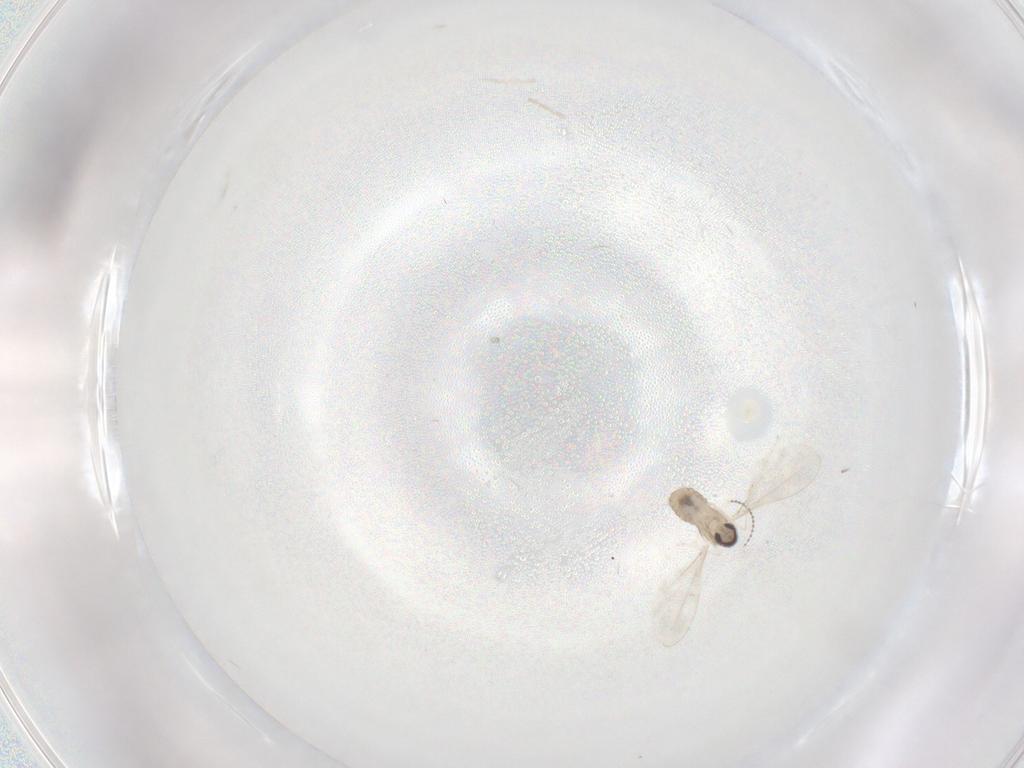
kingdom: Animalia
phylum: Arthropoda
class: Insecta
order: Diptera
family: Cecidomyiidae
